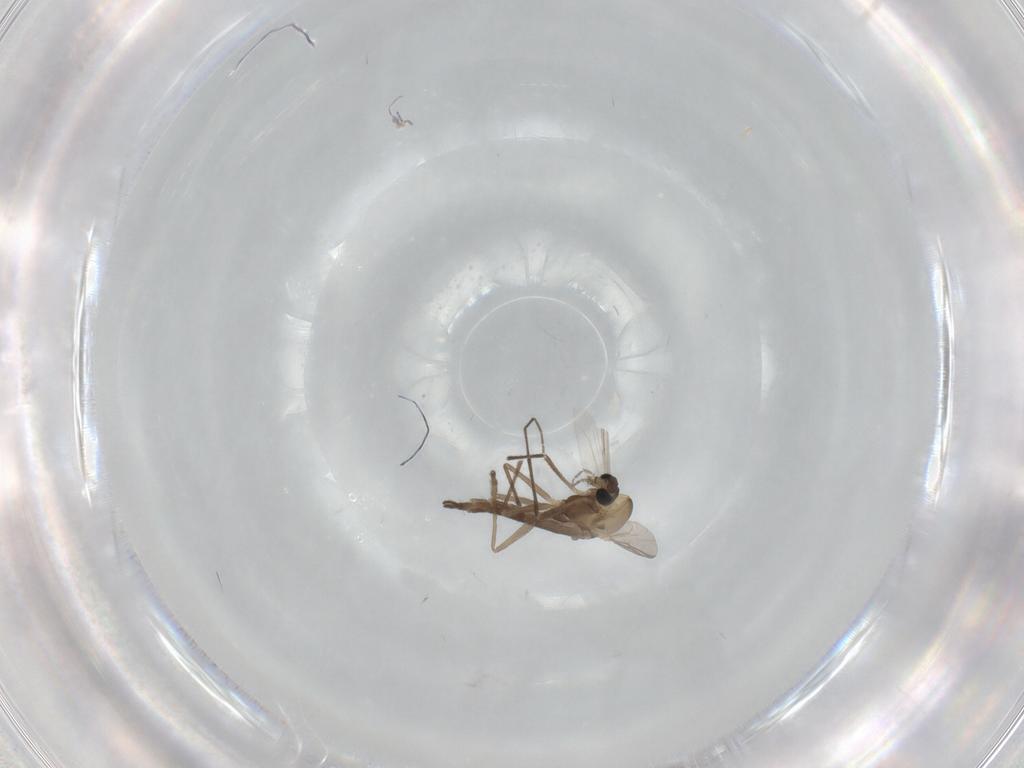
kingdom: Animalia
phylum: Arthropoda
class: Insecta
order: Diptera
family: Chironomidae
